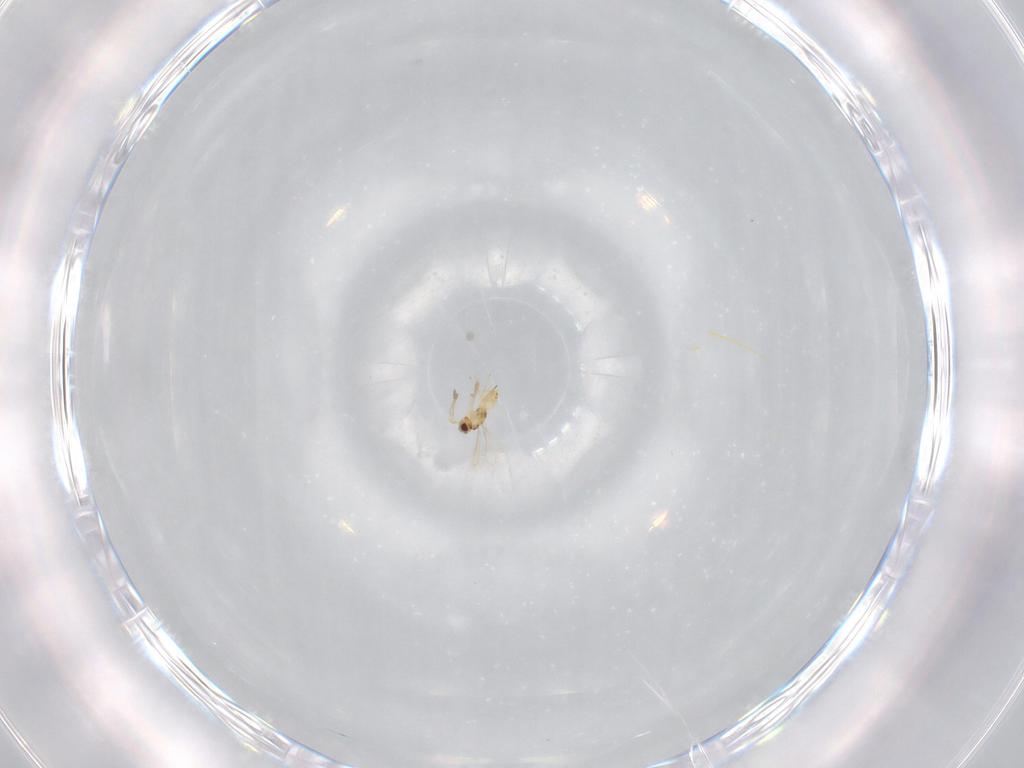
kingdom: Animalia
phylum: Arthropoda
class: Insecta
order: Hymenoptera
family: Mymaridae
